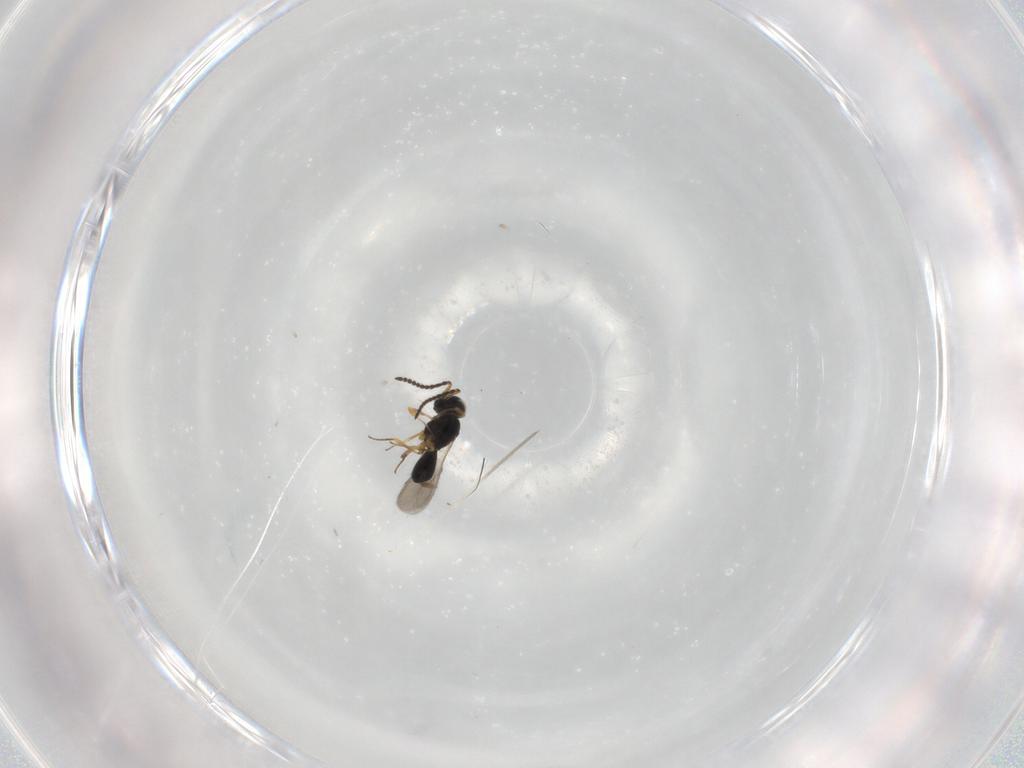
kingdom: Animalia
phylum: Arthropoda
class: Insecta
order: Hymenoptera
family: Scelionidae
